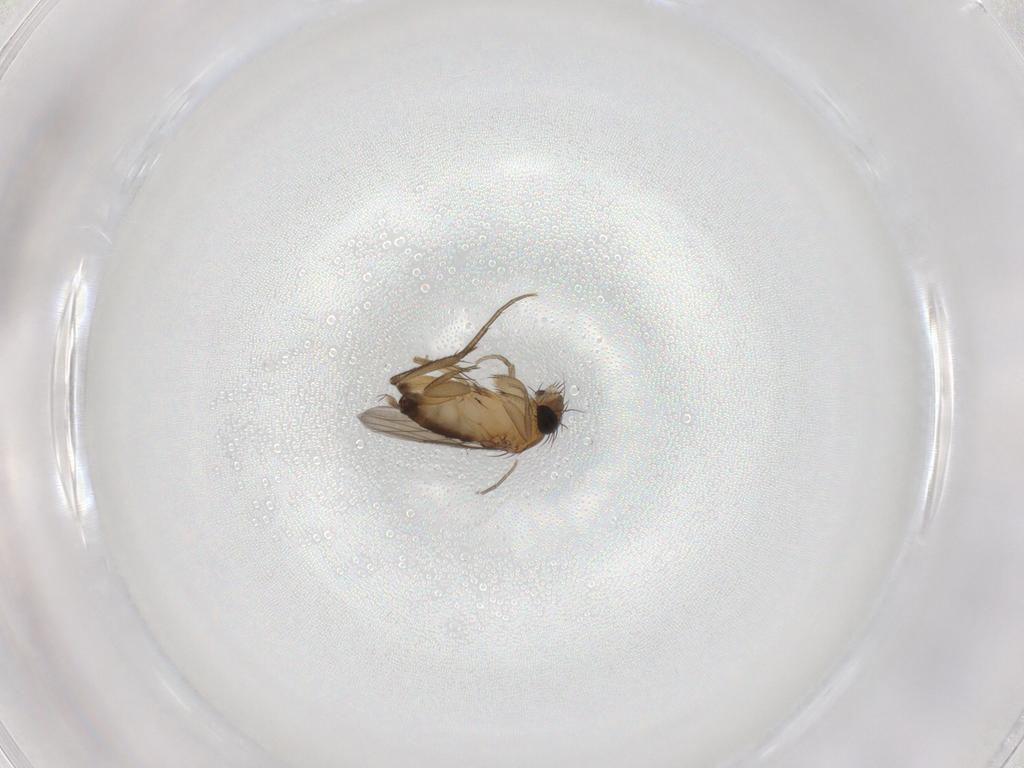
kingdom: Animalia
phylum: Arthropoda
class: Insecta
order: Diptera
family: Phoridae
